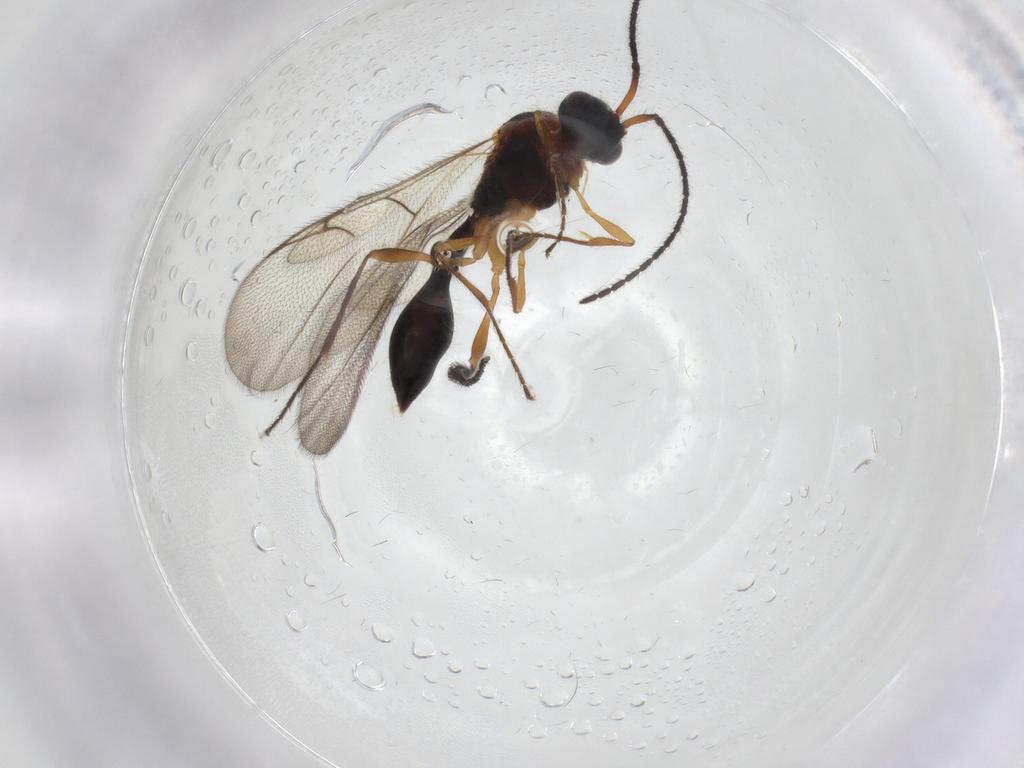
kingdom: Animalia
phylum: Arthropoda
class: Insecta
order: Hymenoptera
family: Diapriidae
